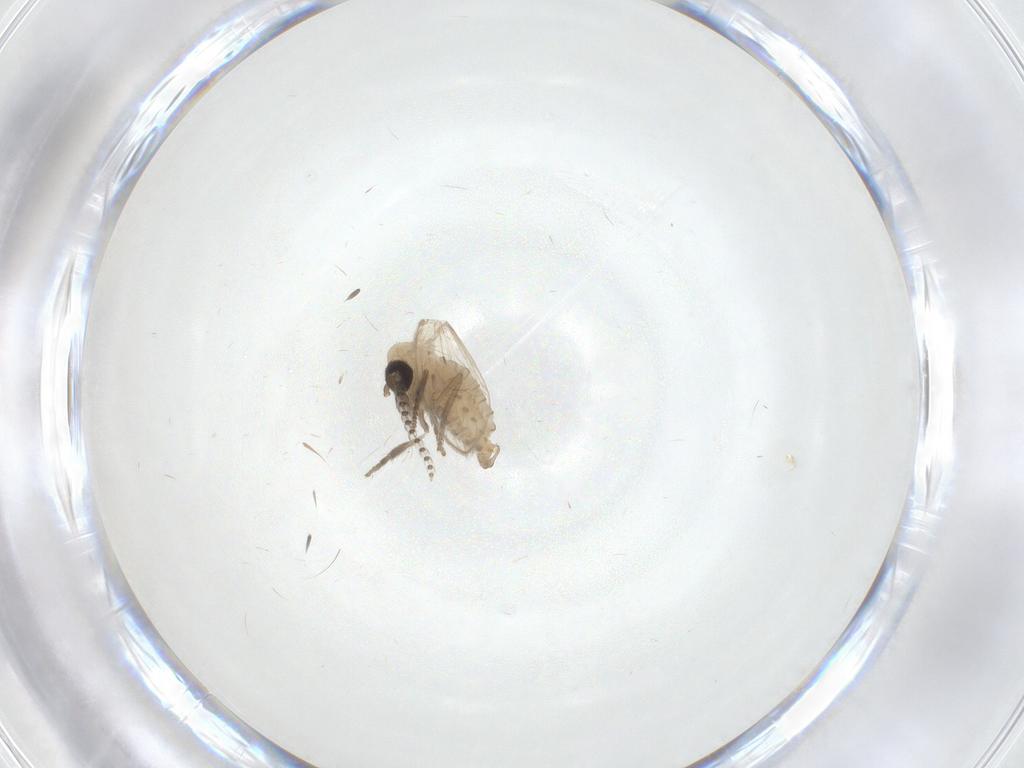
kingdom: Animalia
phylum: Arthropoda
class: Insecta
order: Diptera
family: Psychodidae
